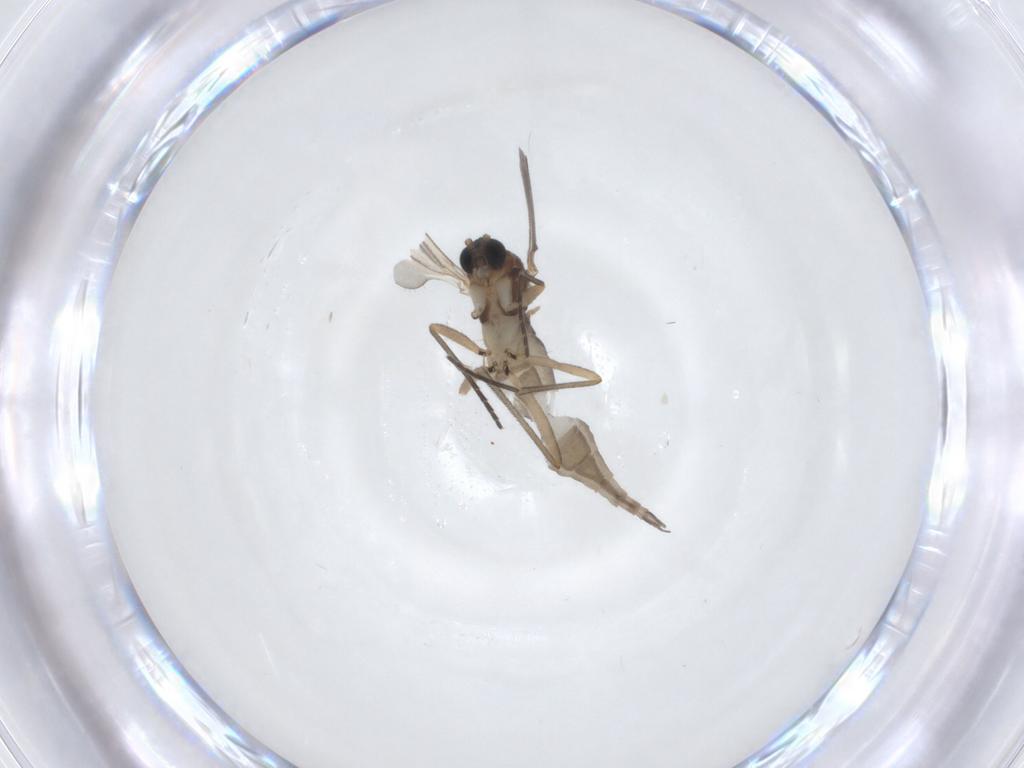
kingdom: Animalia
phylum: Arthropoda
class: Insecta
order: Diptera
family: Sciaridae
